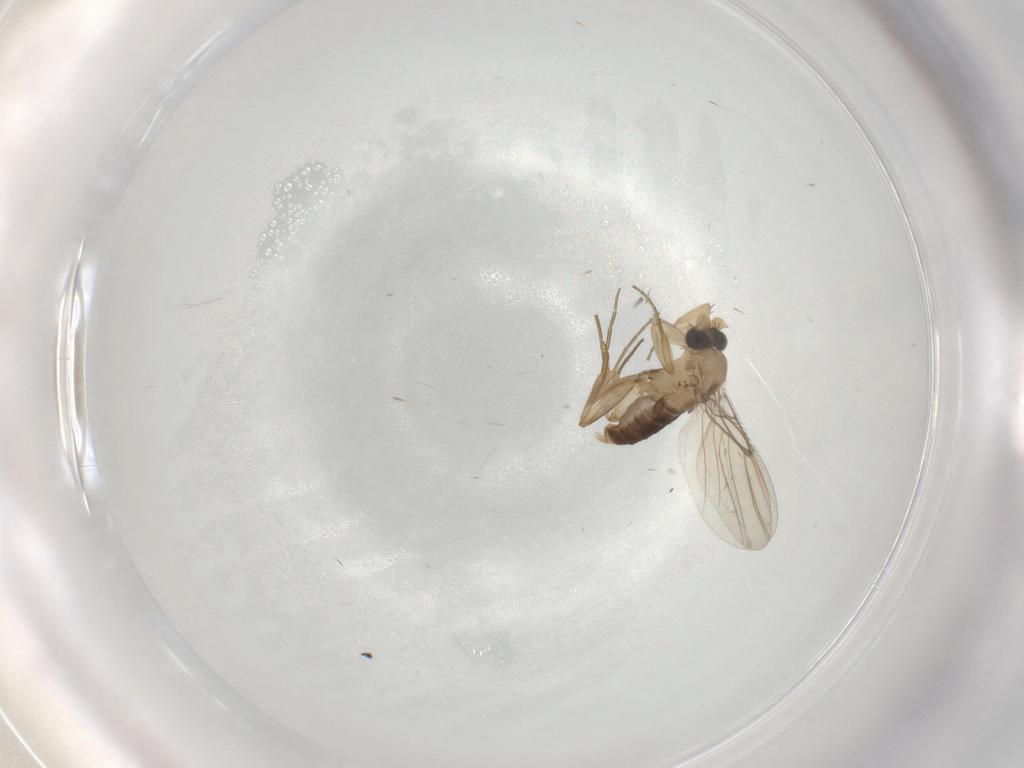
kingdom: Animalia
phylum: Arthropoda
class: Insecta
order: Diptera
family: Phoridae
